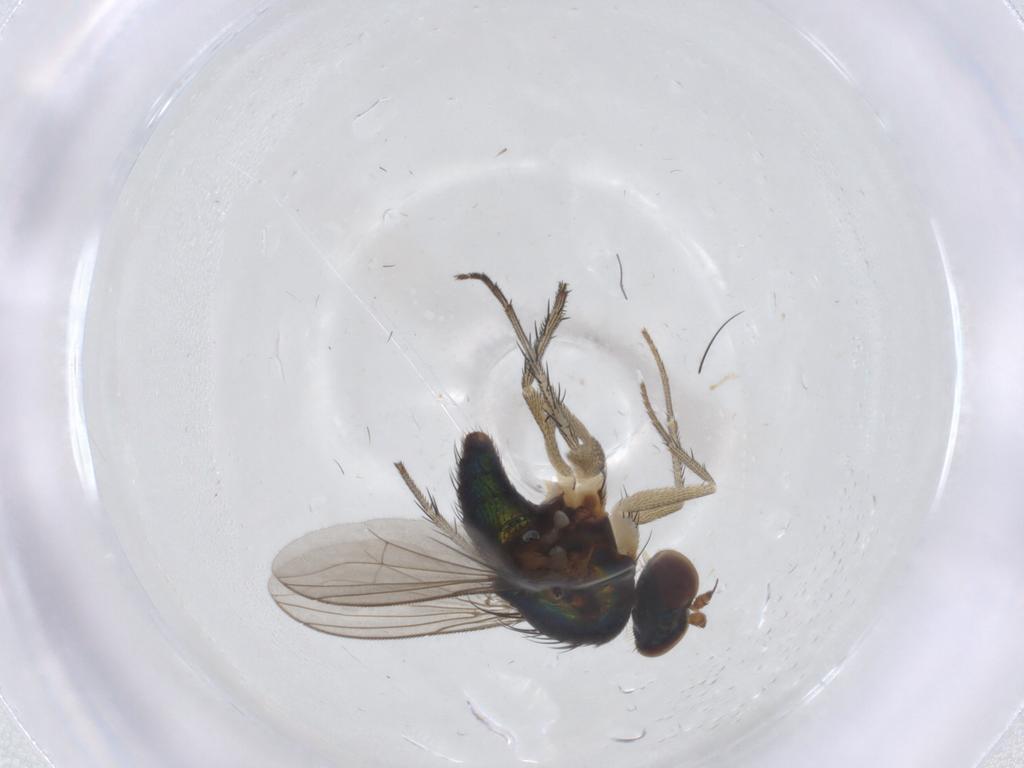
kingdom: Animalia
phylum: Arthropoda
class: Insecta
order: Diptera
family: Dolichopodidae
